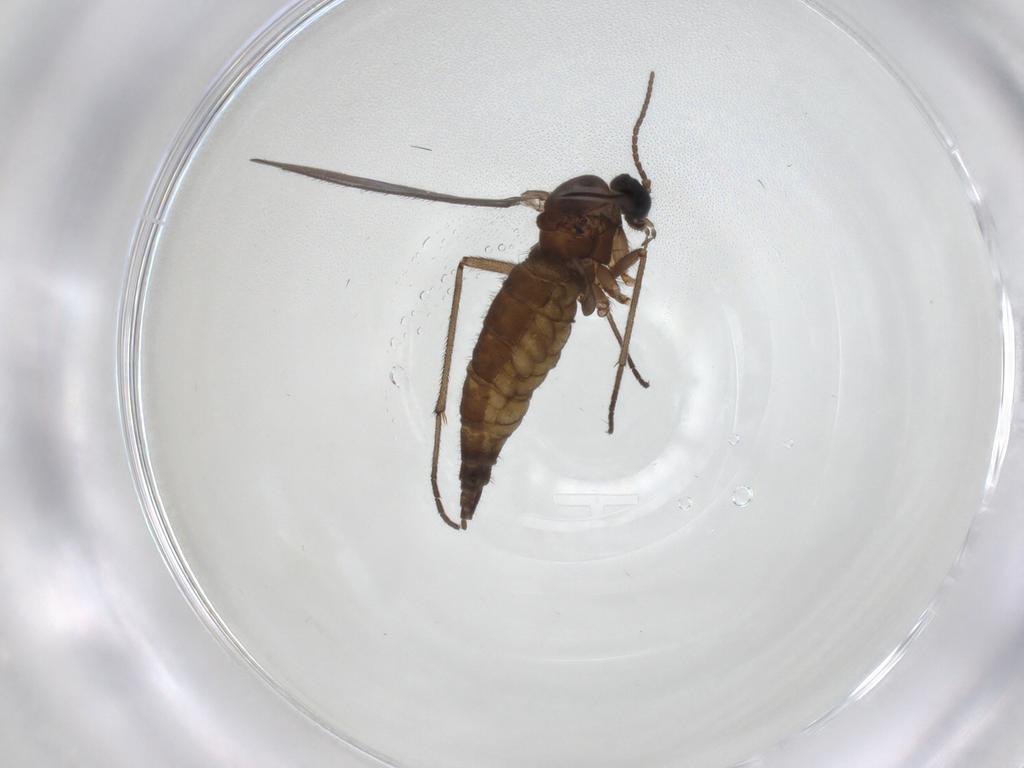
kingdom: Animalia
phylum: Arthropoda
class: Insecta
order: Diptera
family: Sciaridae
